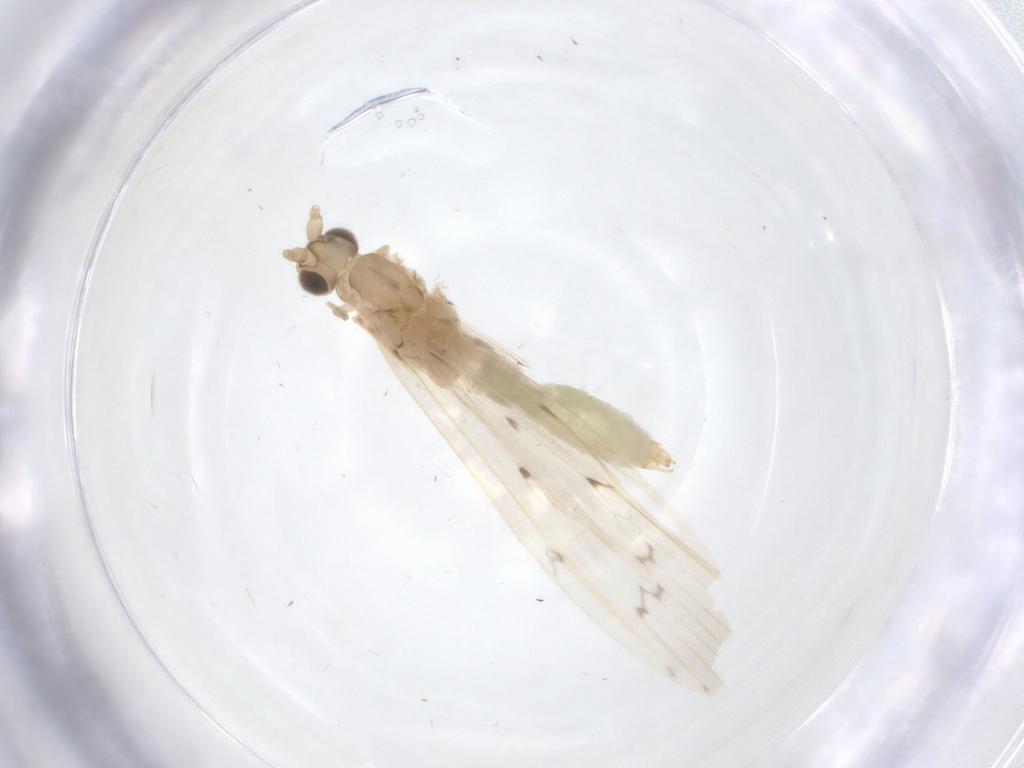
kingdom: Animalia
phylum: Arthropoda
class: Insecta
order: Trichoptera
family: Leptoceridae
